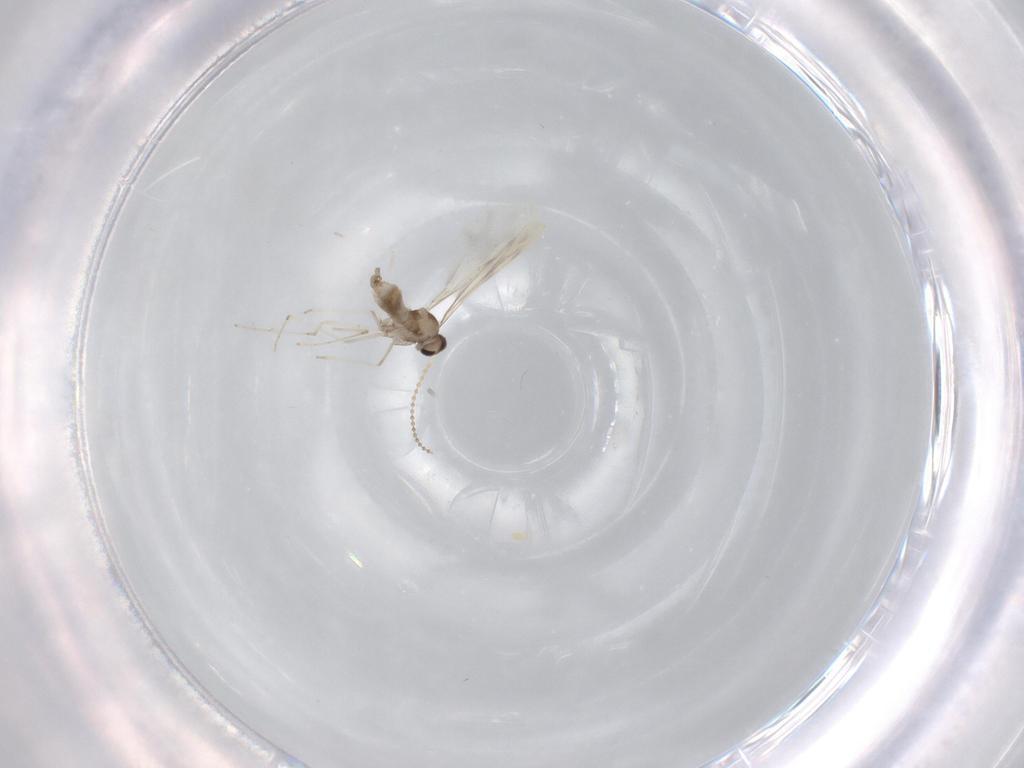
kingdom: Animalia
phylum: Arthropoda
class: Insecta
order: Diptera
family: Cecidomyiidae
